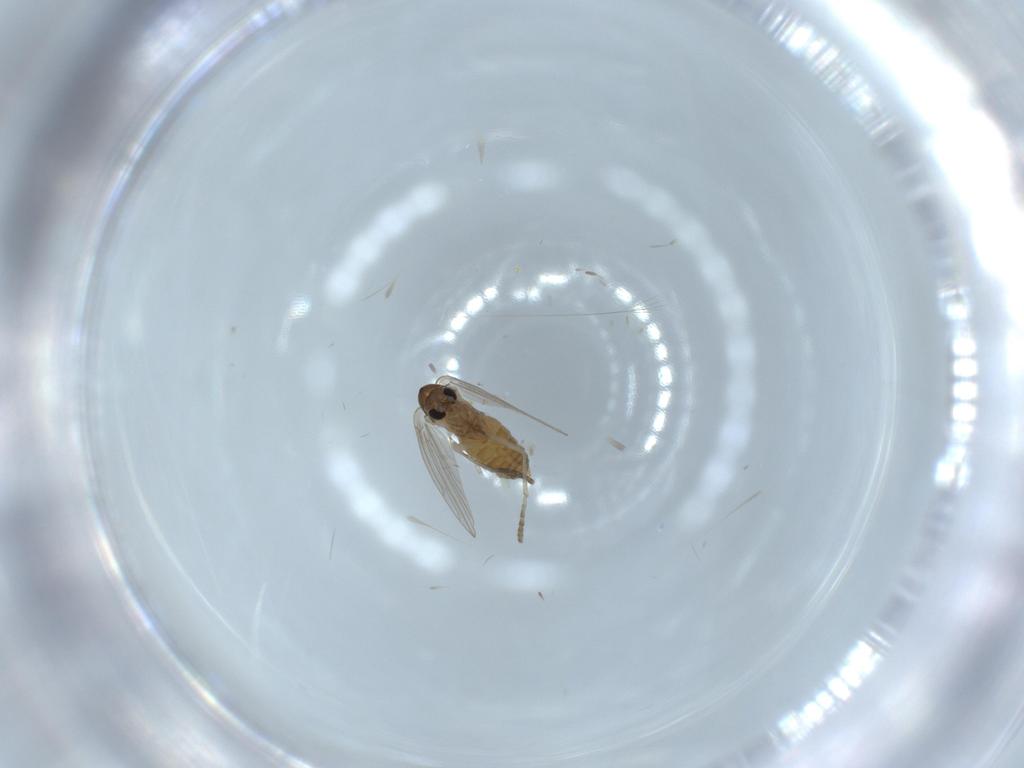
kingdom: Animalia
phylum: Arthropoda
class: Insecta
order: Diptera
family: Psychodidae
